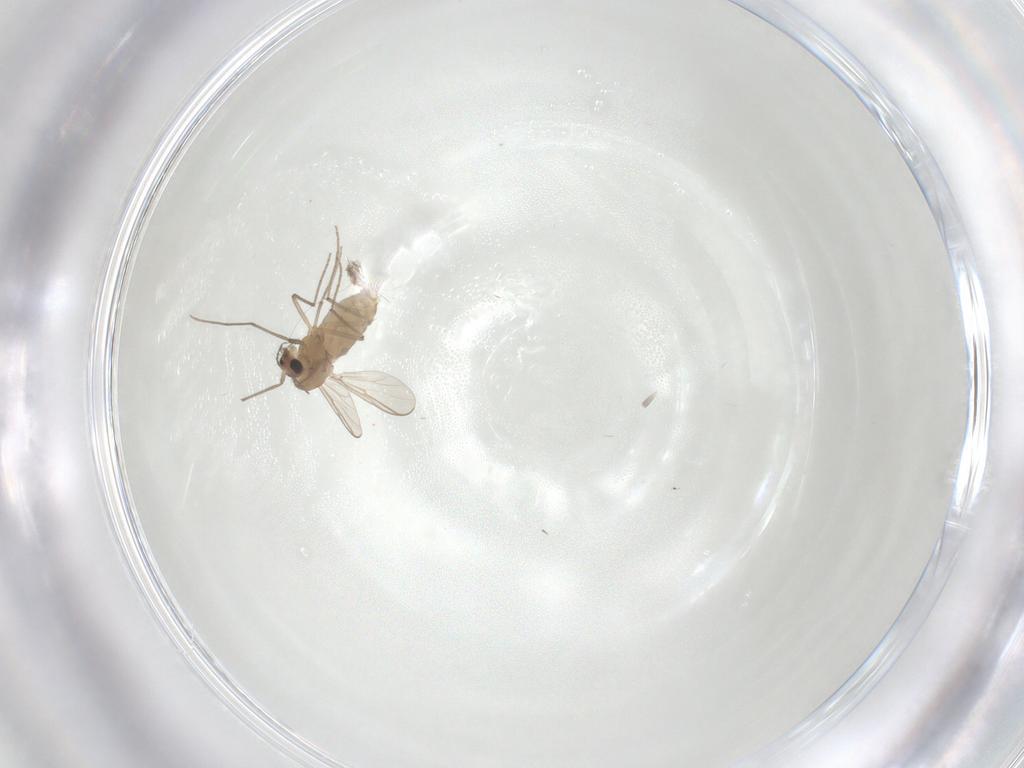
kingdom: Animalia
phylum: Arthropoda
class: Insecta
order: Diptera
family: Chironomidae
